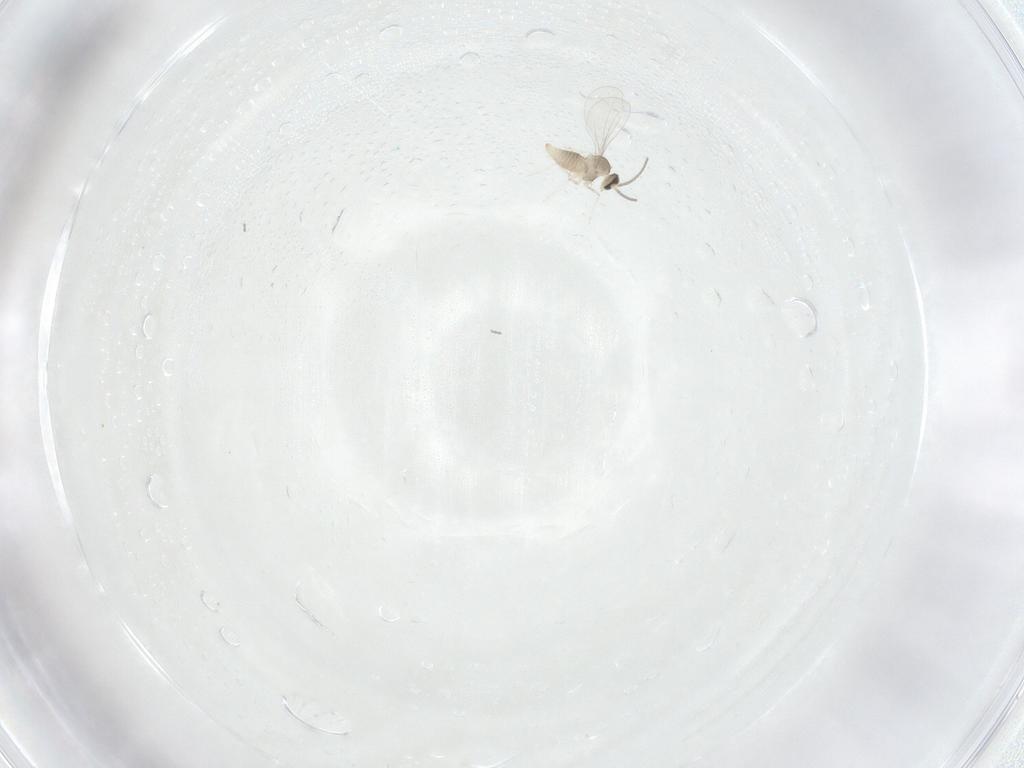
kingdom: Animalia
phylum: Arthropoda
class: Insecta
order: Diptera
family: Cecidomyiidae
